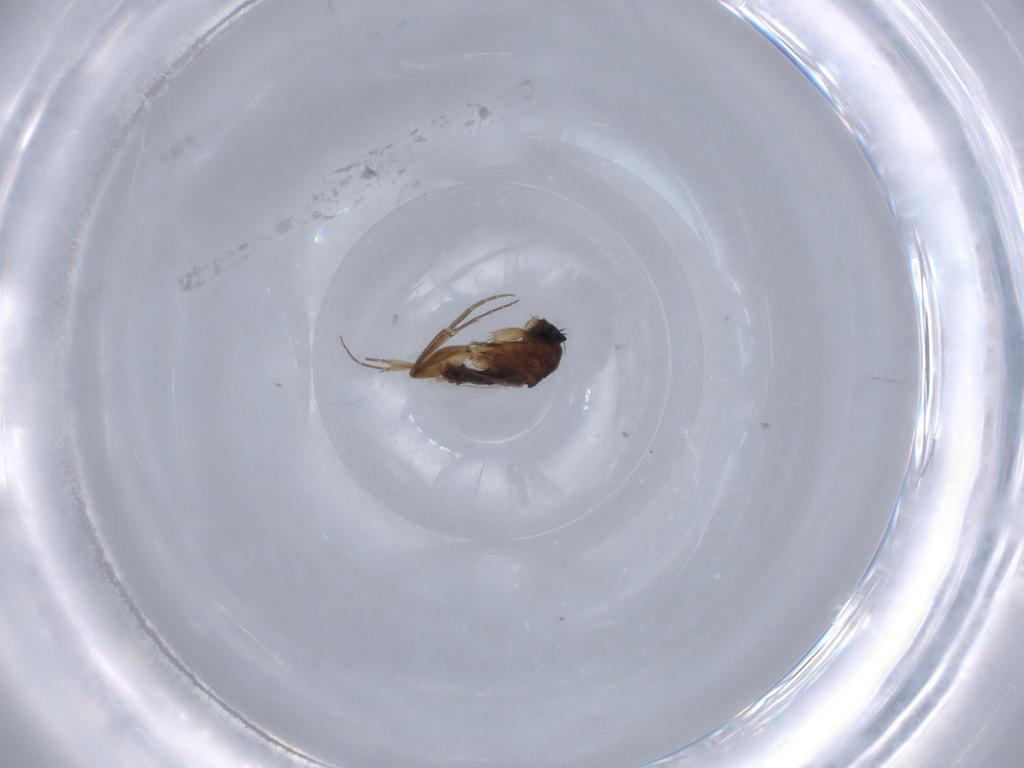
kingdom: Animalia
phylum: Arthropoda
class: Insecta
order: Diptera
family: Phoridae
